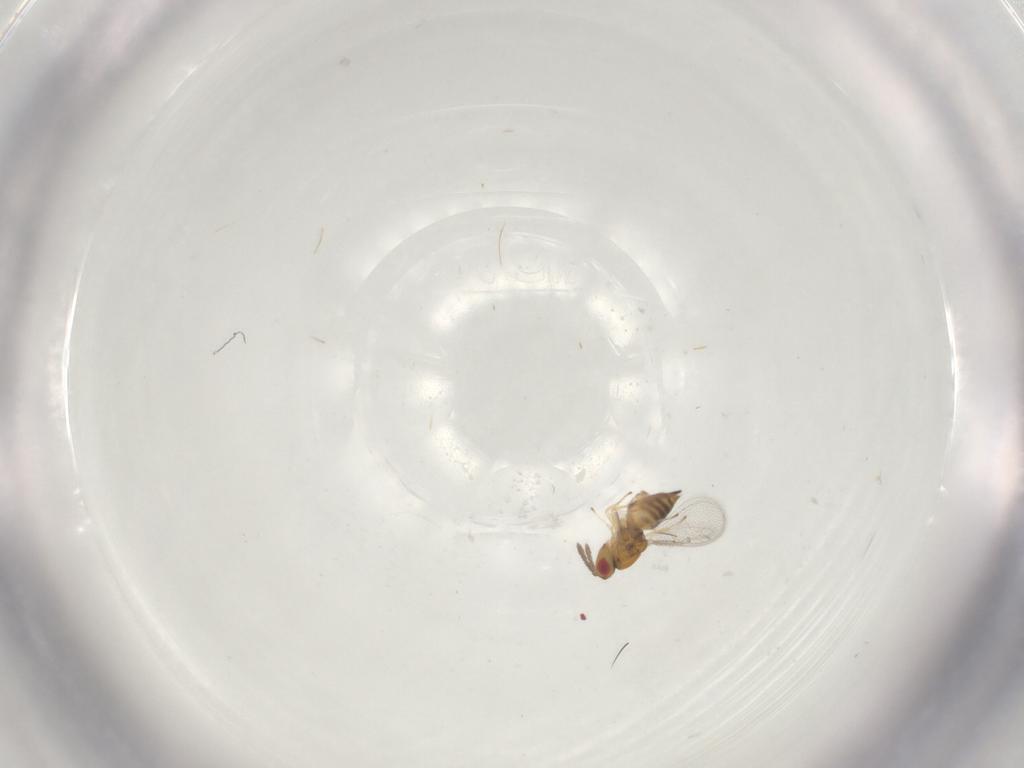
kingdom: Animalia
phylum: Arthropoda
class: Insecta
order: Hymenoptera
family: Eulophidae
